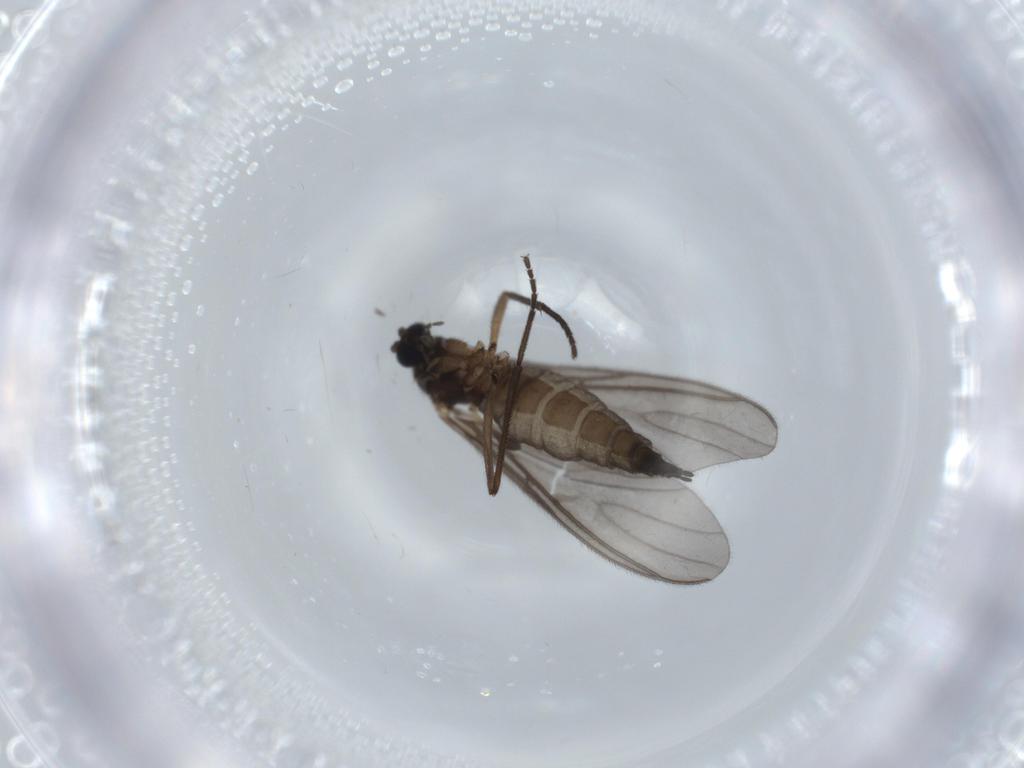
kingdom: Animalia
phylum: Arthropoda
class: Insecta
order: Diptera
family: Sciaridae
